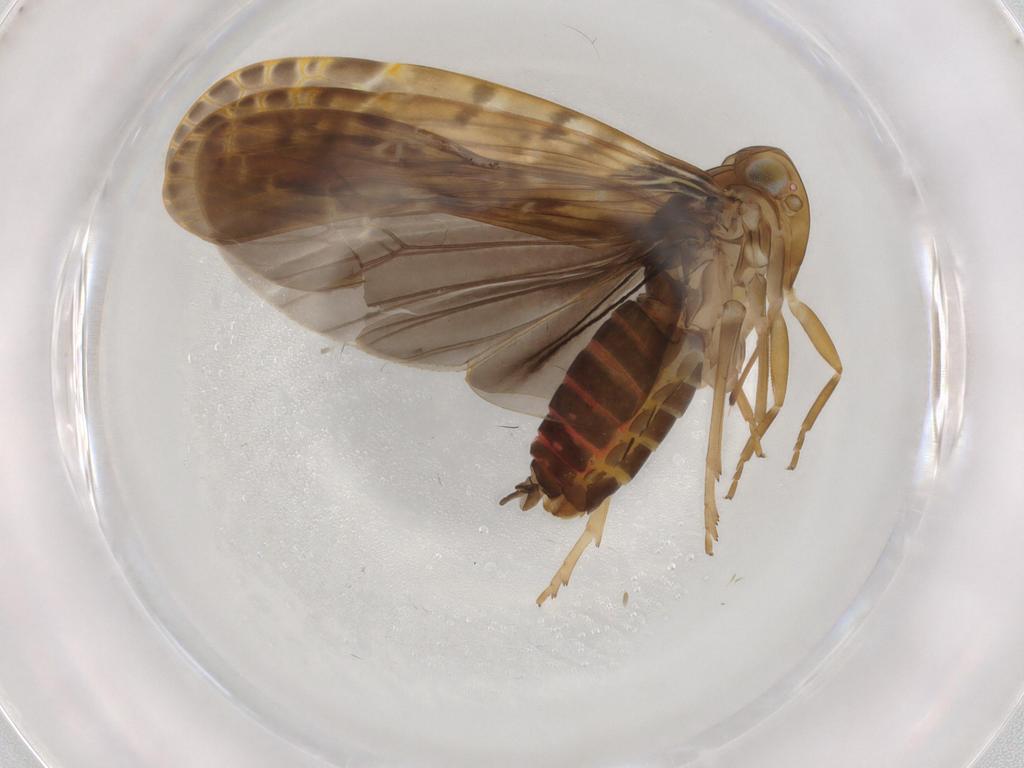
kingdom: Animalia
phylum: Arthropoda
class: Insecta
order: Hemiptera
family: Achilidae
